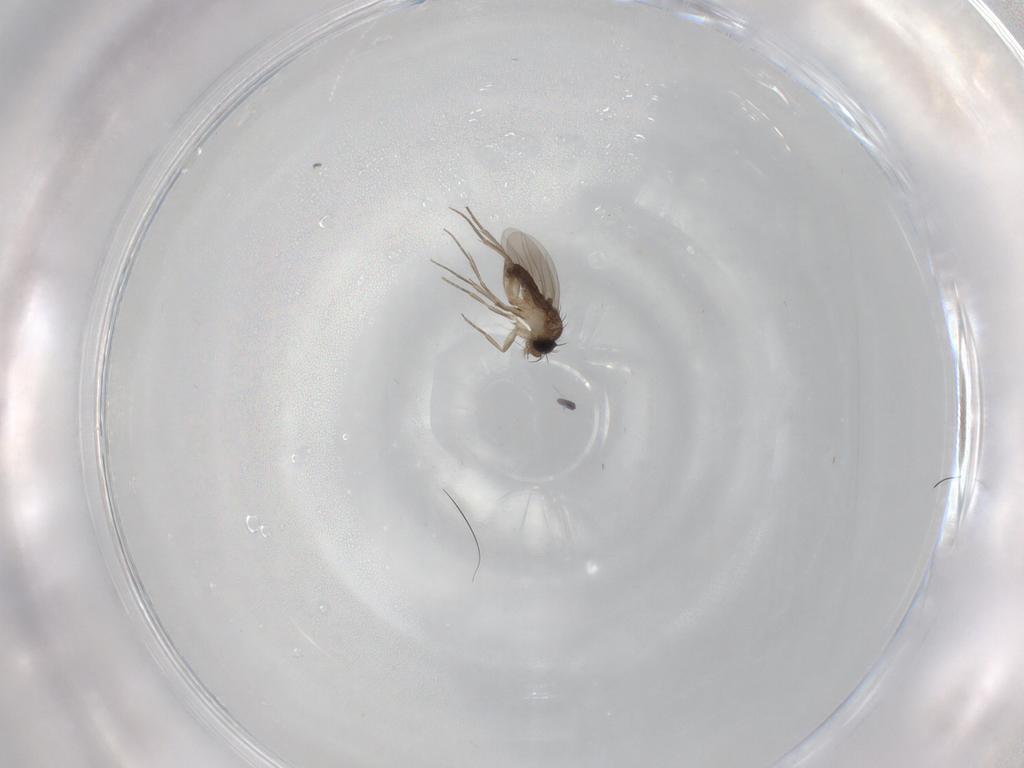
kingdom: Animalia
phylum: Arthropoda
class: Insecta
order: Diptera
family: Phoridae
